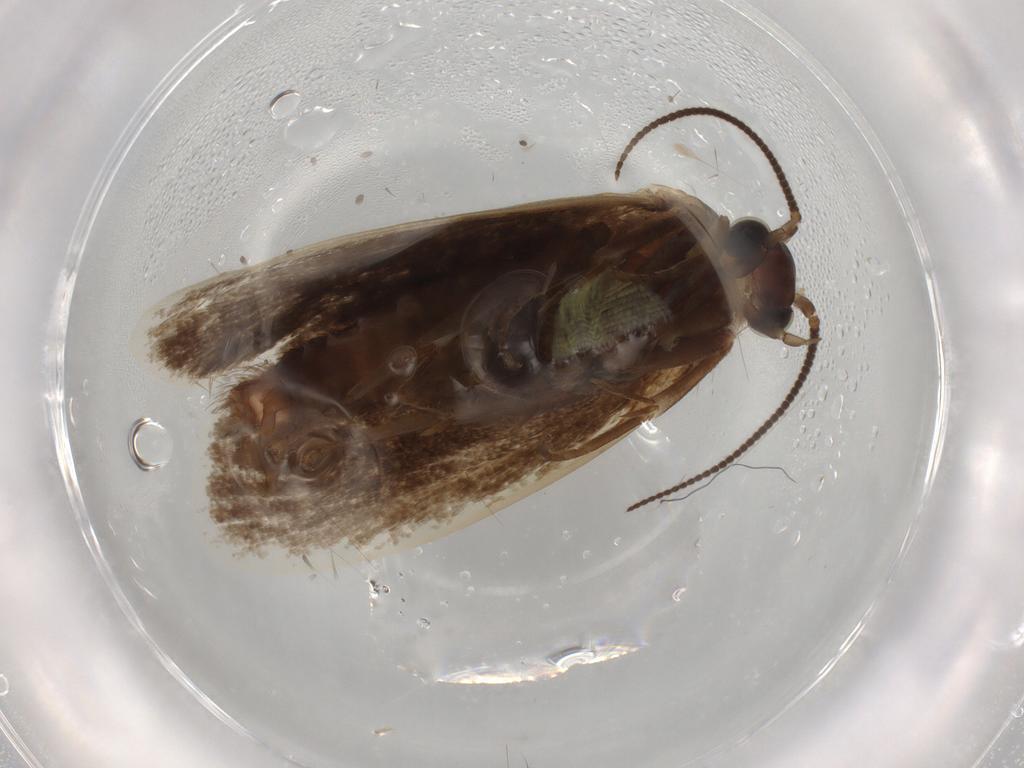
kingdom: Animalia
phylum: Arthropoda
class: Insecta
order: Lepidoptera
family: Tineidae
